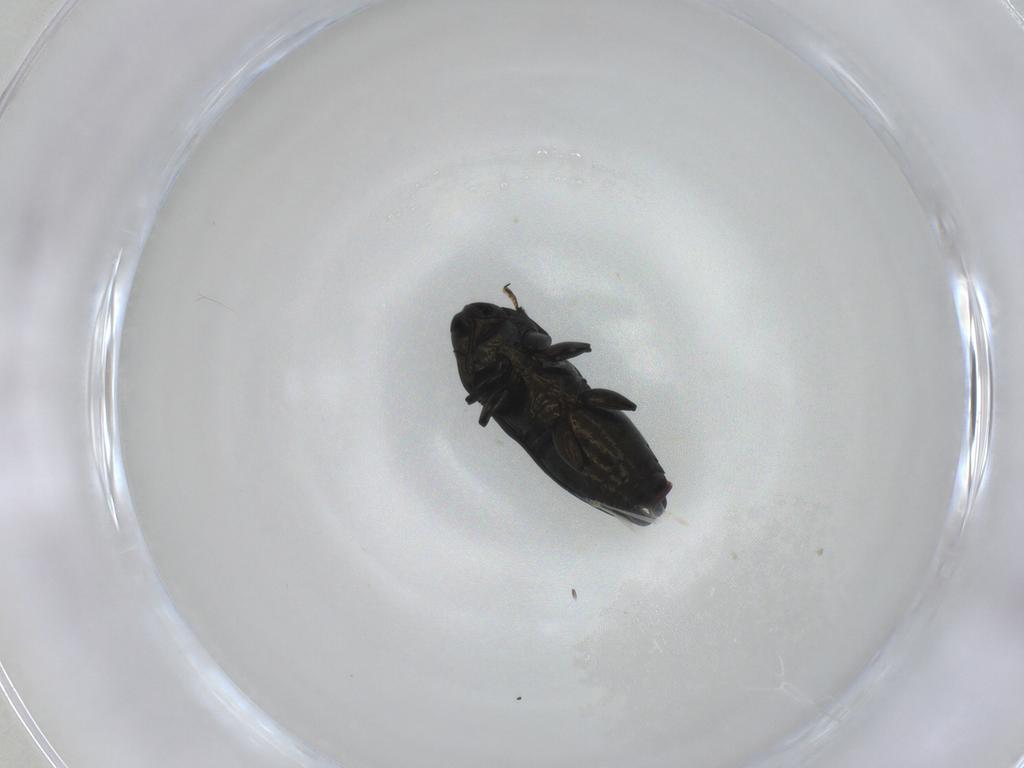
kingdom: Animalia
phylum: Arthropoda
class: Insecta
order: Coleoptera
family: Buprestidae
